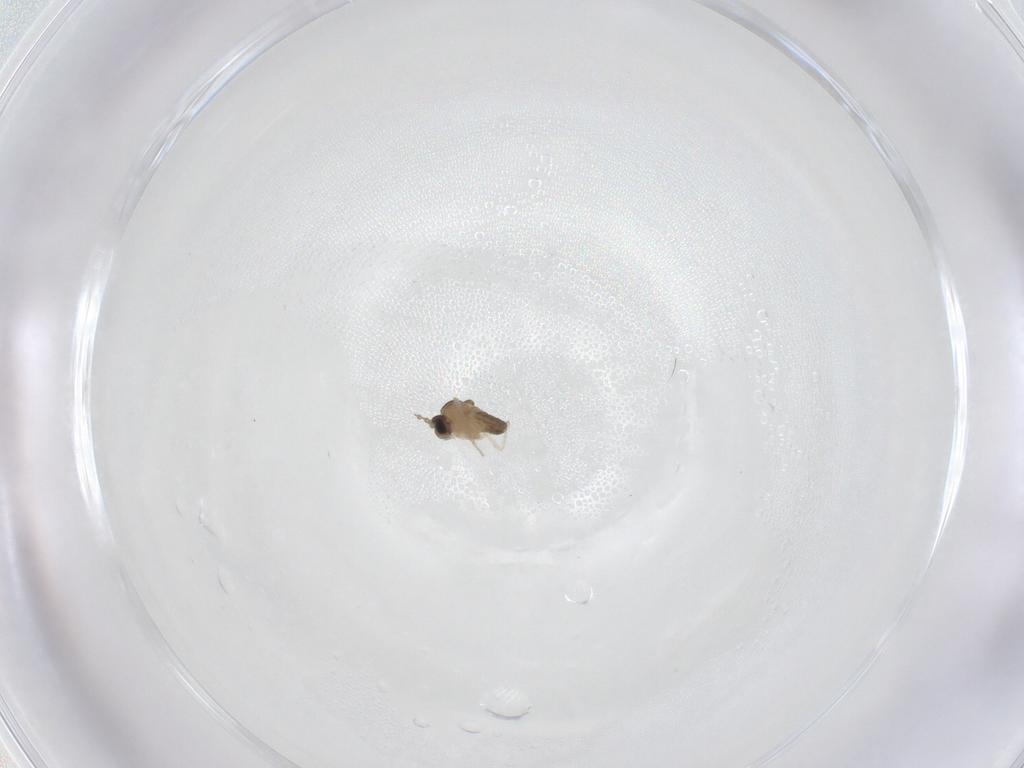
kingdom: Animalia
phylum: Arthropoda
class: Insecta
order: Diptera
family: Cecidomyiidae
